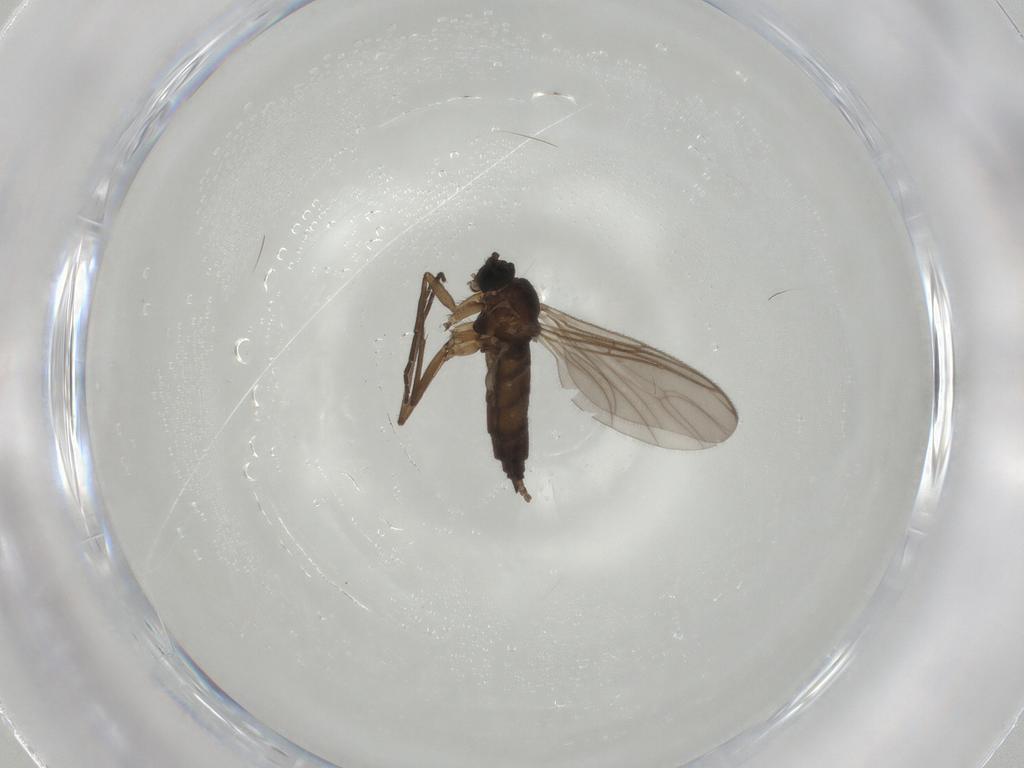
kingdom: Animalia
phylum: Arthropoda
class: Insecta
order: Diptera
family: Sciaridae
